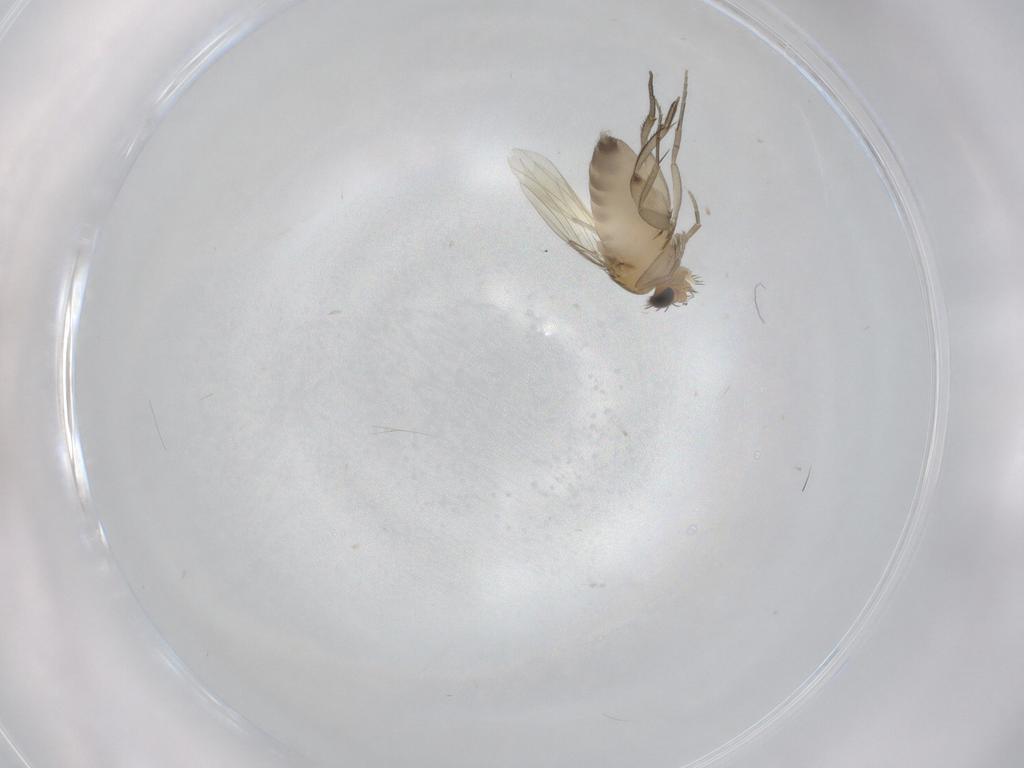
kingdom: Animalia
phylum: Arthropoda
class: Insecta
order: Diptera
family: Phoridae
